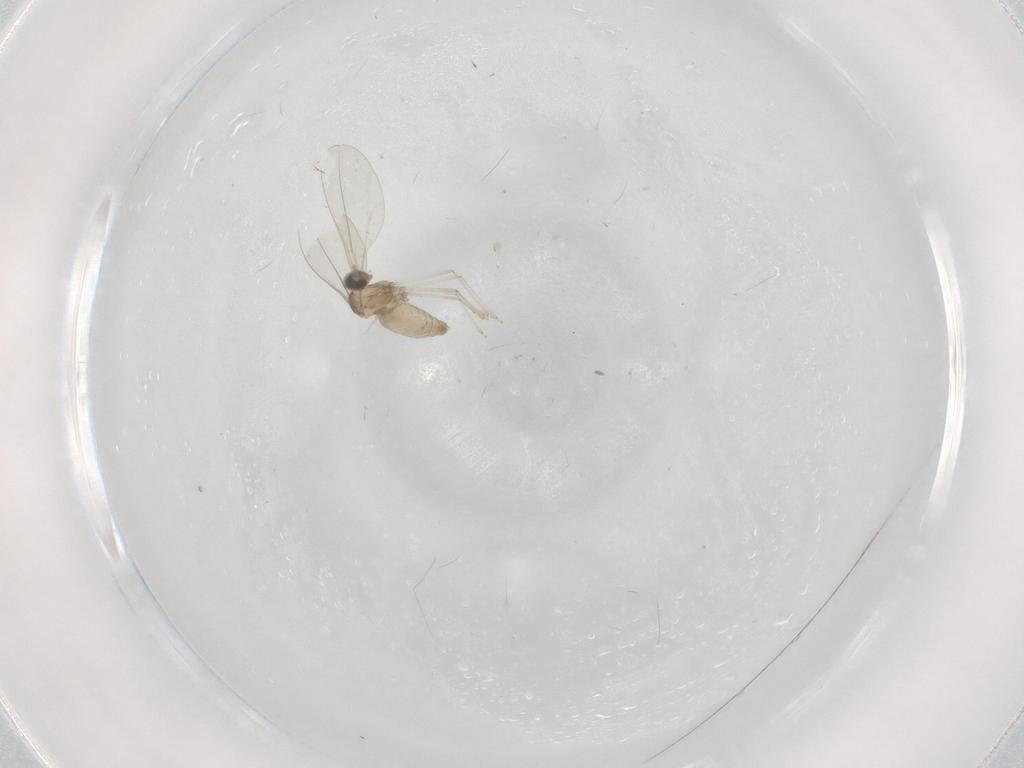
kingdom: Animalia
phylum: Arthropoda
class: Insecta
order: Diptera
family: Cecidomyiidae
